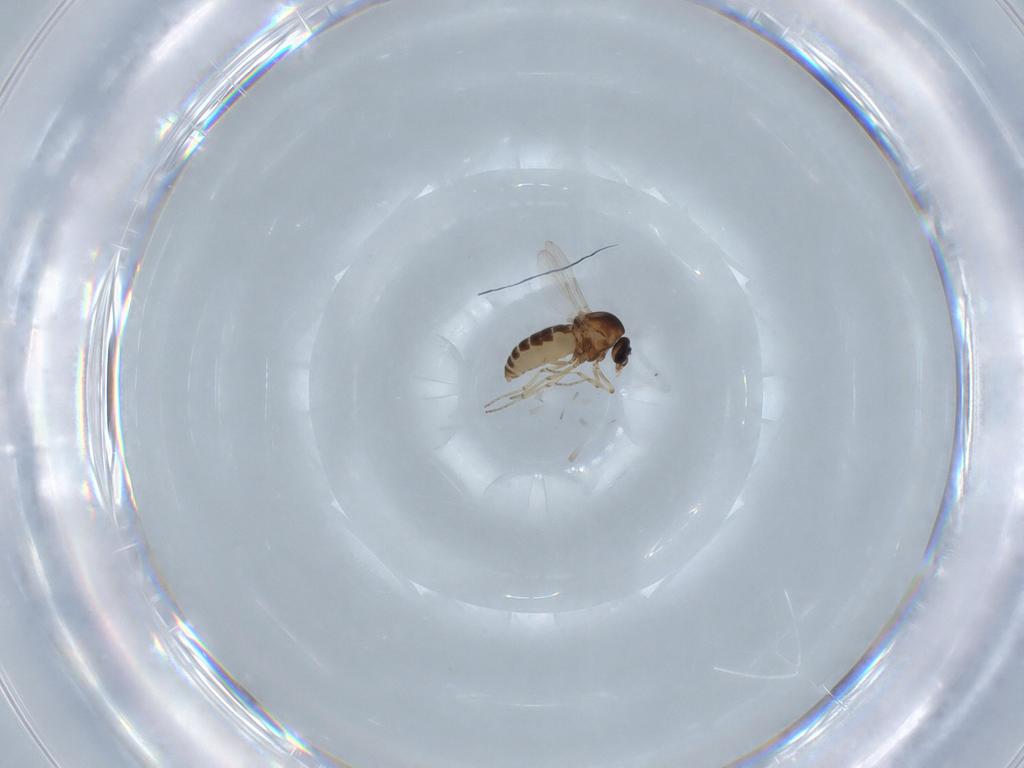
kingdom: Animalia
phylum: Arthropoda
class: Insecta
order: Diptera
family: Ceratopogonidae
